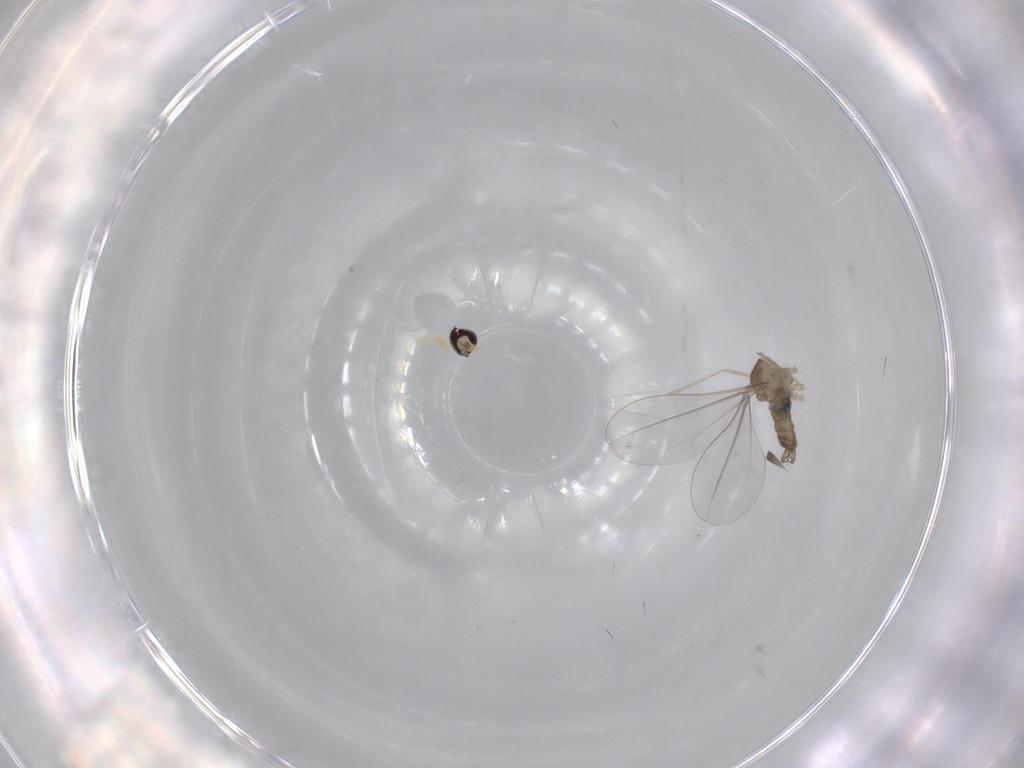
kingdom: Animalia
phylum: Arthropoda
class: Insecta
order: Diptera
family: Cecidomyiidae
